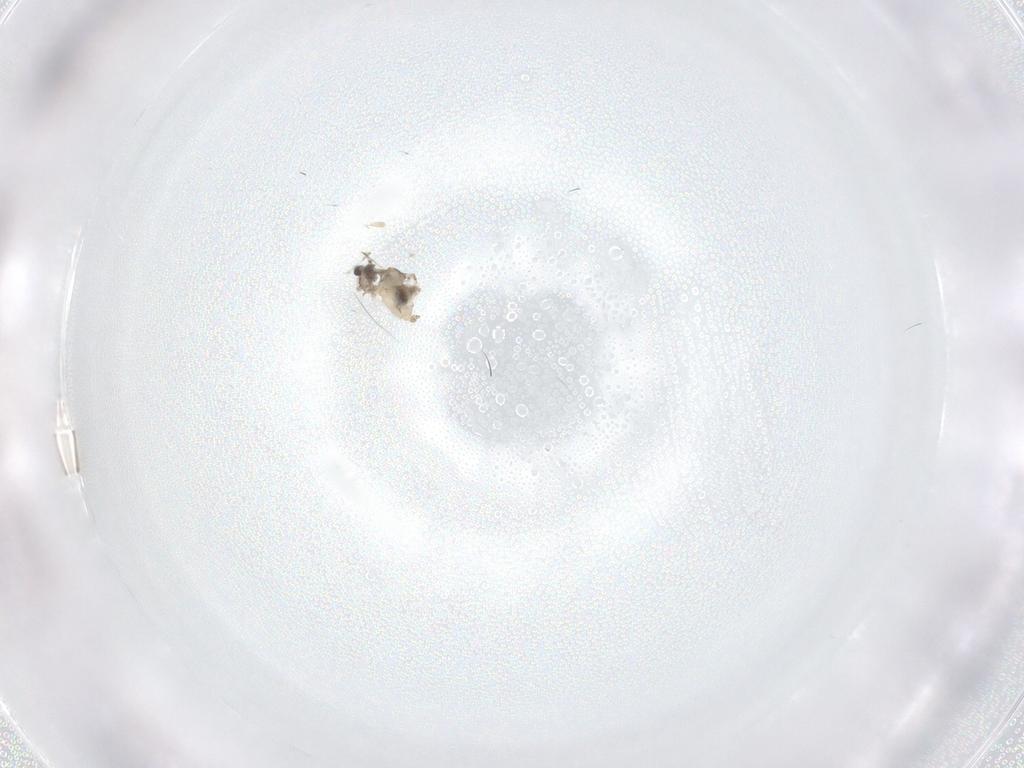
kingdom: Animalia
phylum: Arthropoda
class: Insecta
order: Diptera
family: Cecidomyiidae
